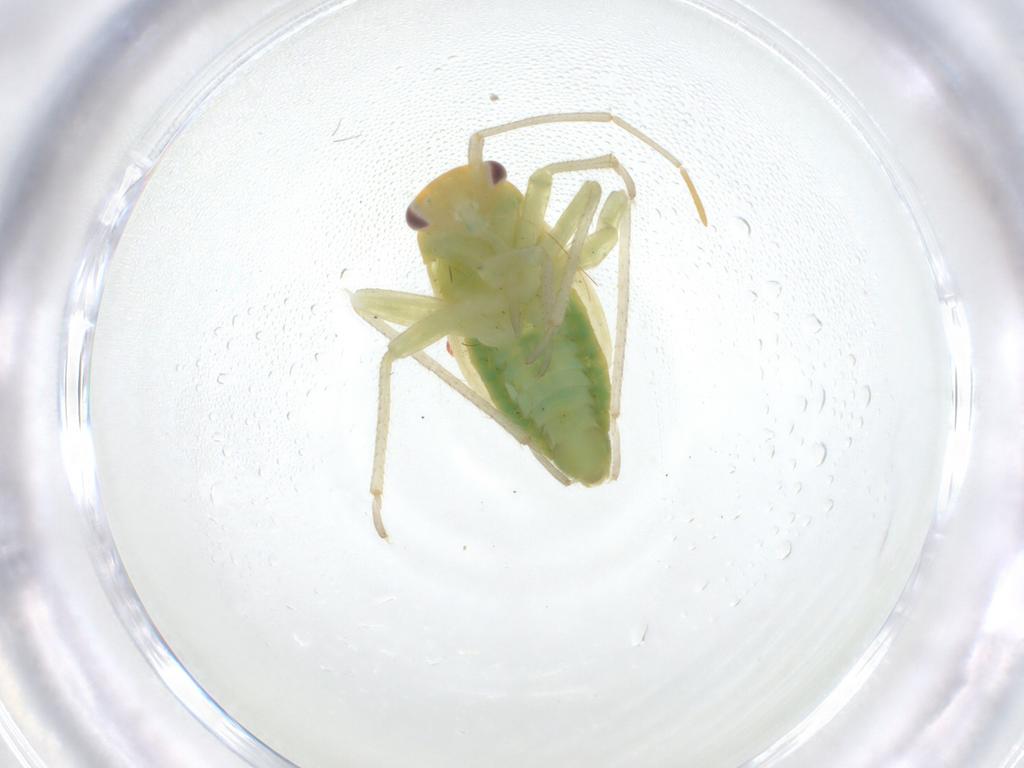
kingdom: Animalia
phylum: Arthropoda
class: Insecta
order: Hemiptera
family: Miridae
